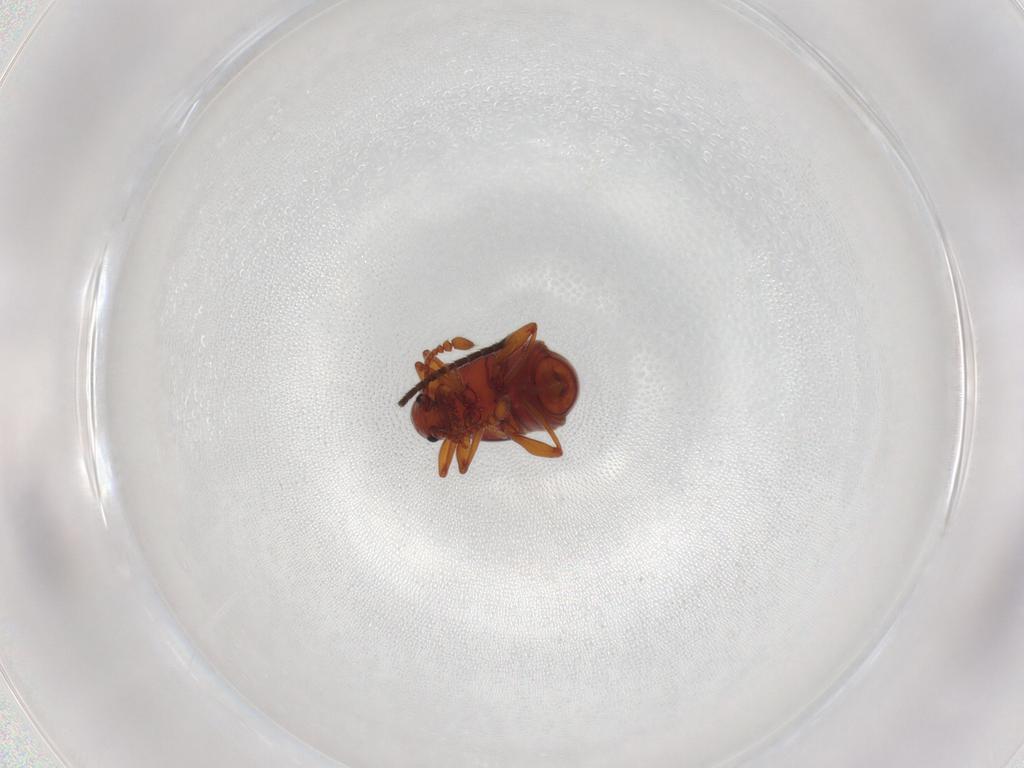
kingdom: Animalia
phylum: Arthropoda
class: Insecta
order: Coleoptera
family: Staphylinidae
